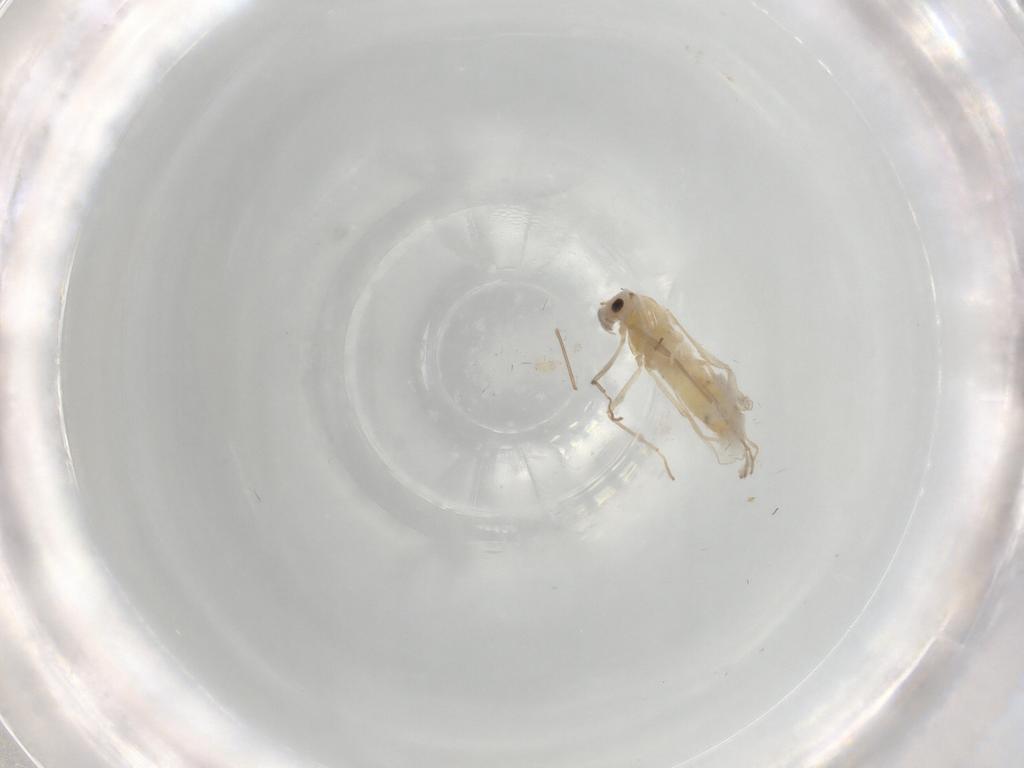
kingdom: Animalia
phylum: Arthropoda
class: Insecta
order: Diptera
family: Chironomidae
